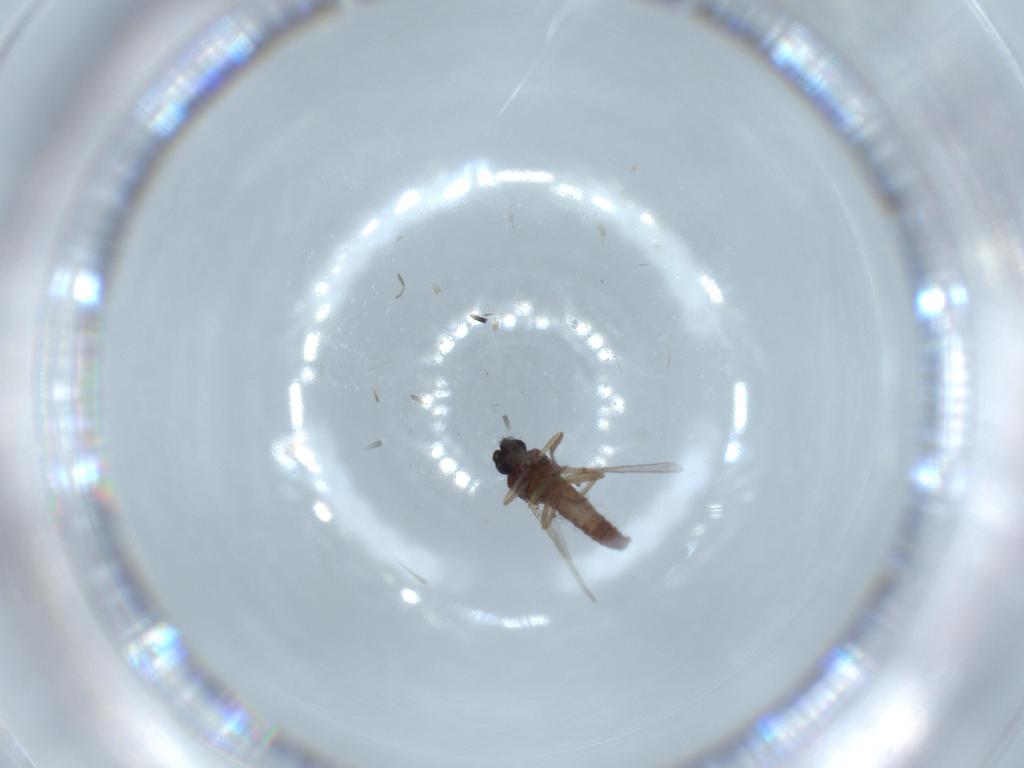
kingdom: Animalia
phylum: Arthropoda
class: Insecta
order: Diptera
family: Chironomidae
